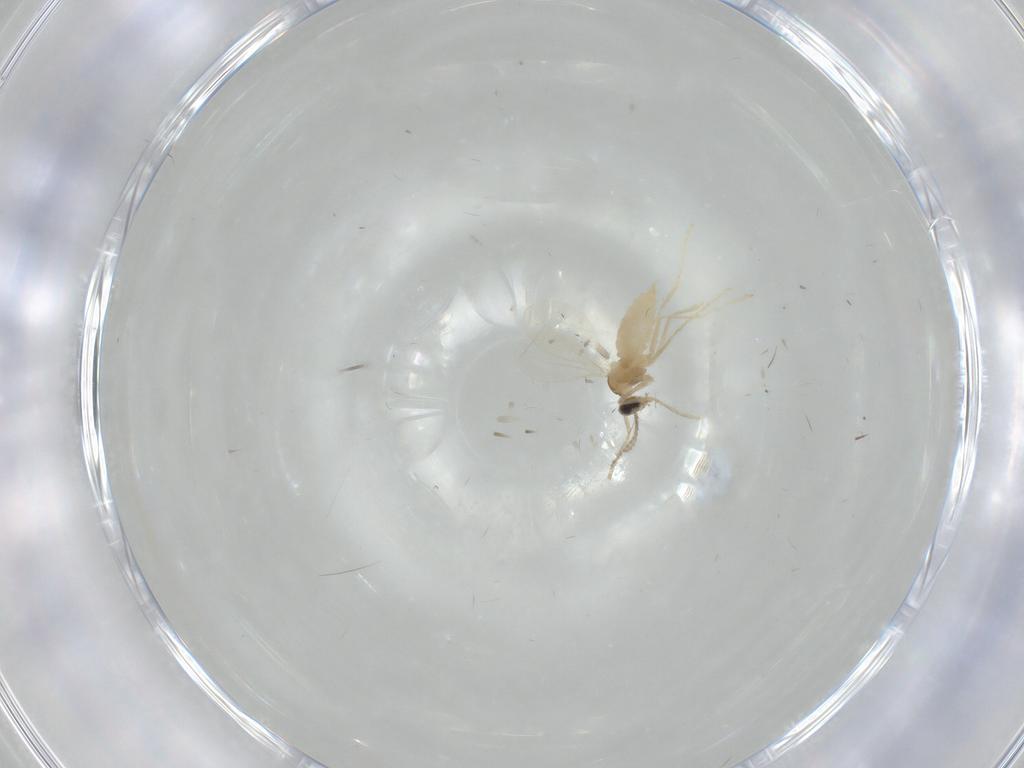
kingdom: Animalia
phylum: Arthropoda
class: Insecta
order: Diptera
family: Cecidomyiidae
